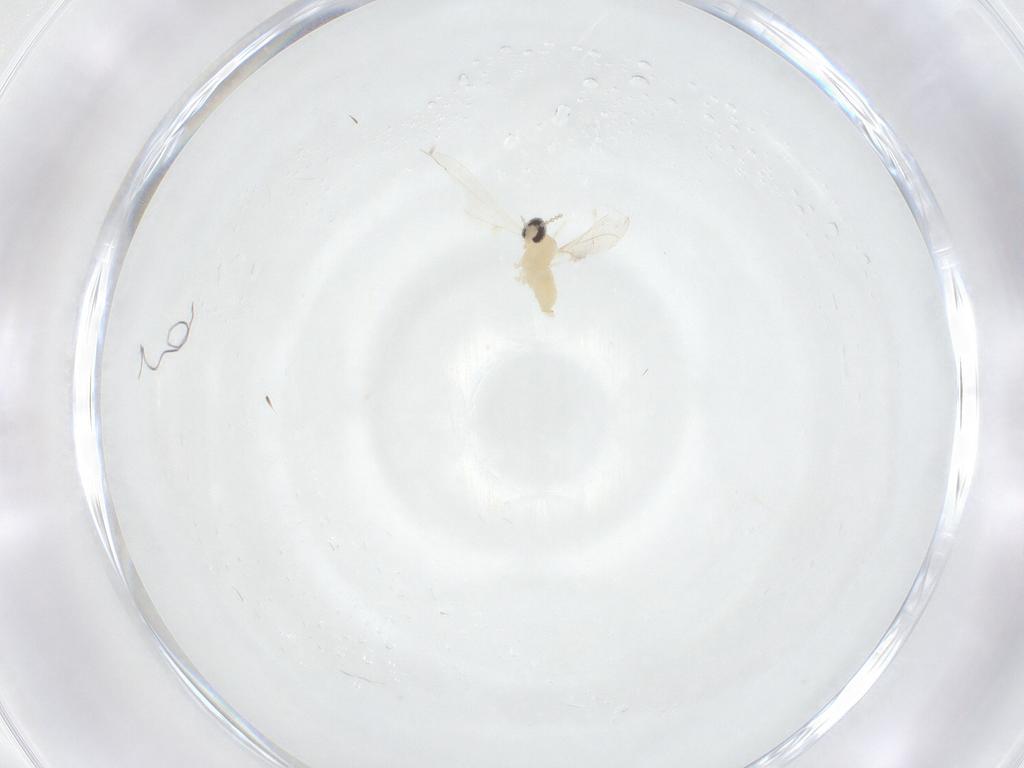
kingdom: Animalia
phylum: Arthropoda
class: Insecta
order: Diptera
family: Cecidomyiidae
